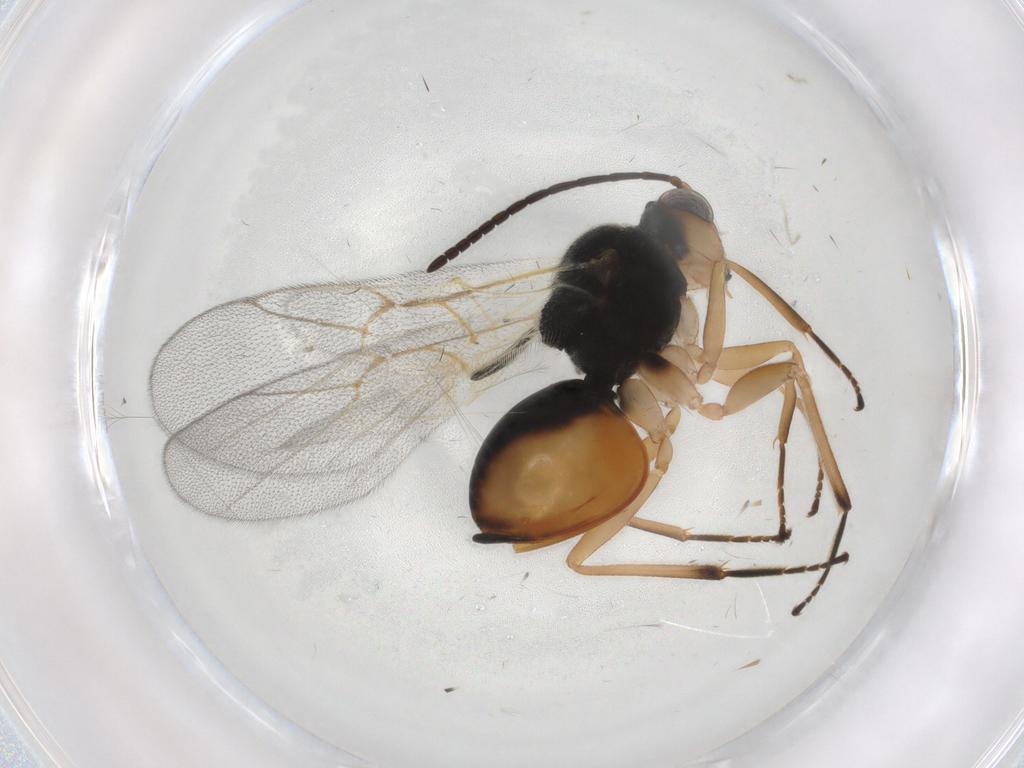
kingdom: Animalia
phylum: Arthropoda
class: Insecta
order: Hymenoptera
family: Cynipidae
